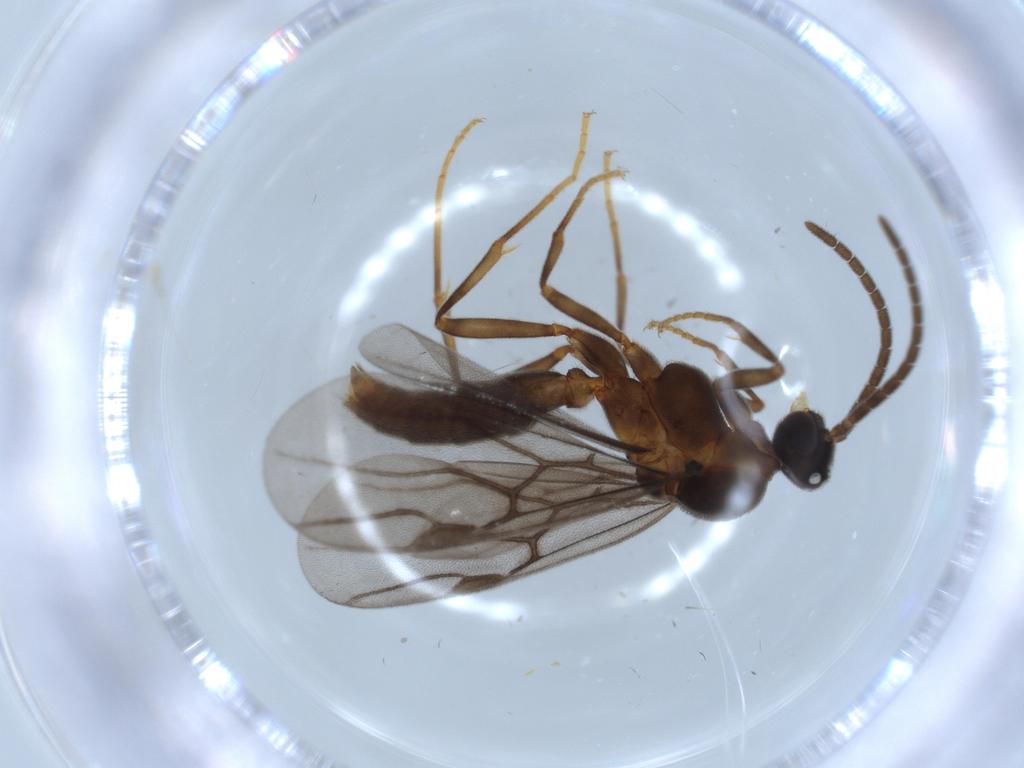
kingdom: Animalia
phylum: Arthropoda
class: Insecta
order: Hymenoptera
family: Formicidae
